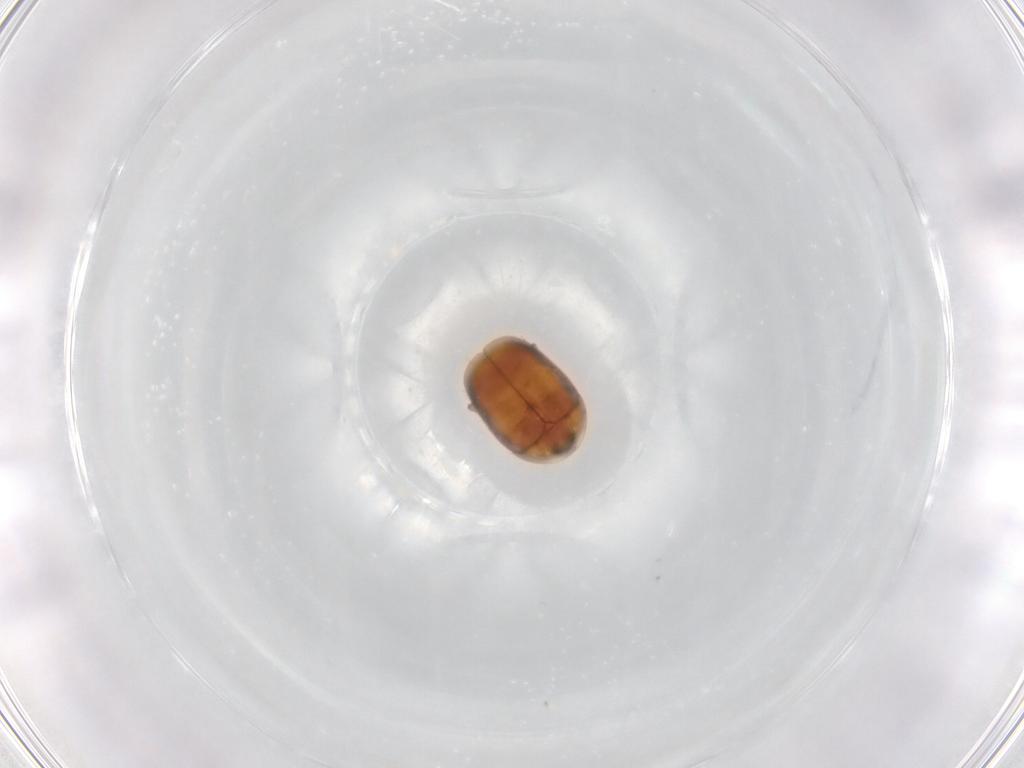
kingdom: Animalia
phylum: Arthropoda
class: Insecta
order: Coleoptera
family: Corylophidae
